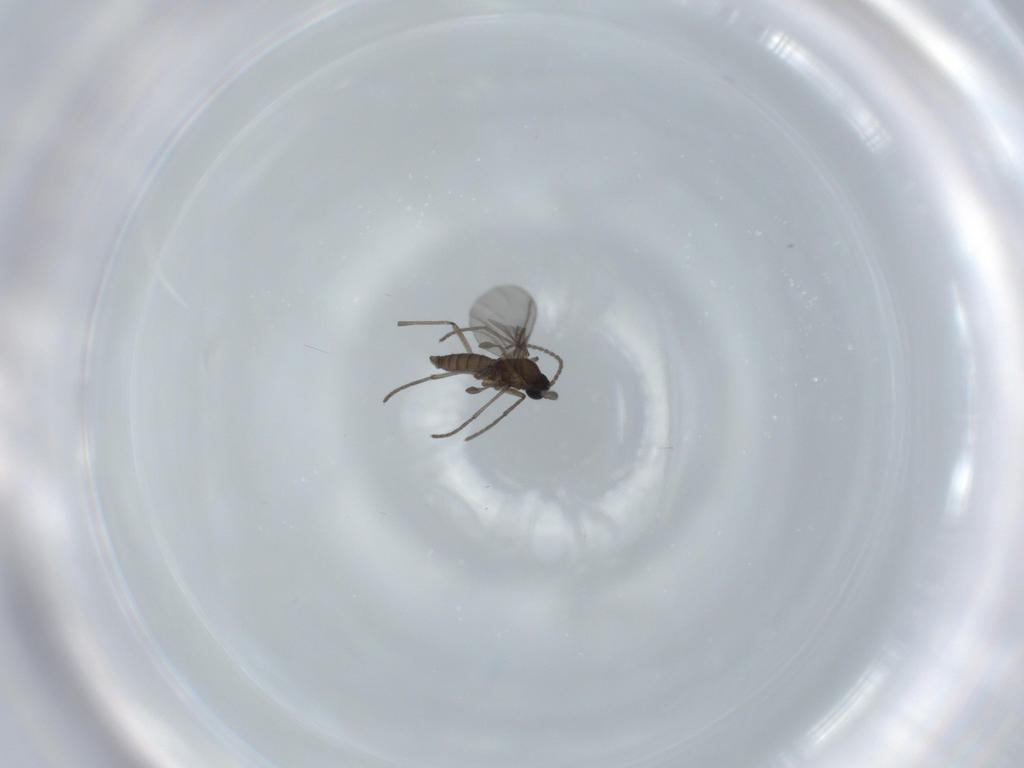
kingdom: Animalia
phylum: Arthropoda
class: Insecta
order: Diptera
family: Sciaridae
